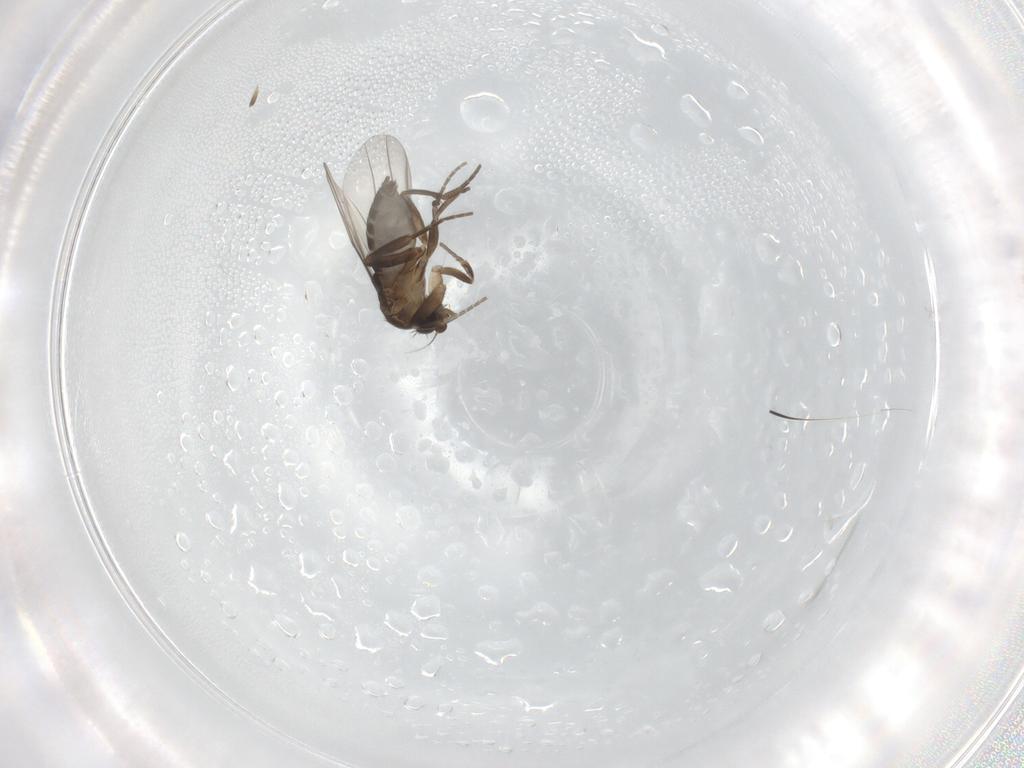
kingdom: Animalia
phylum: Arthropoda
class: Insecta
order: Diptera
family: Phoridae
